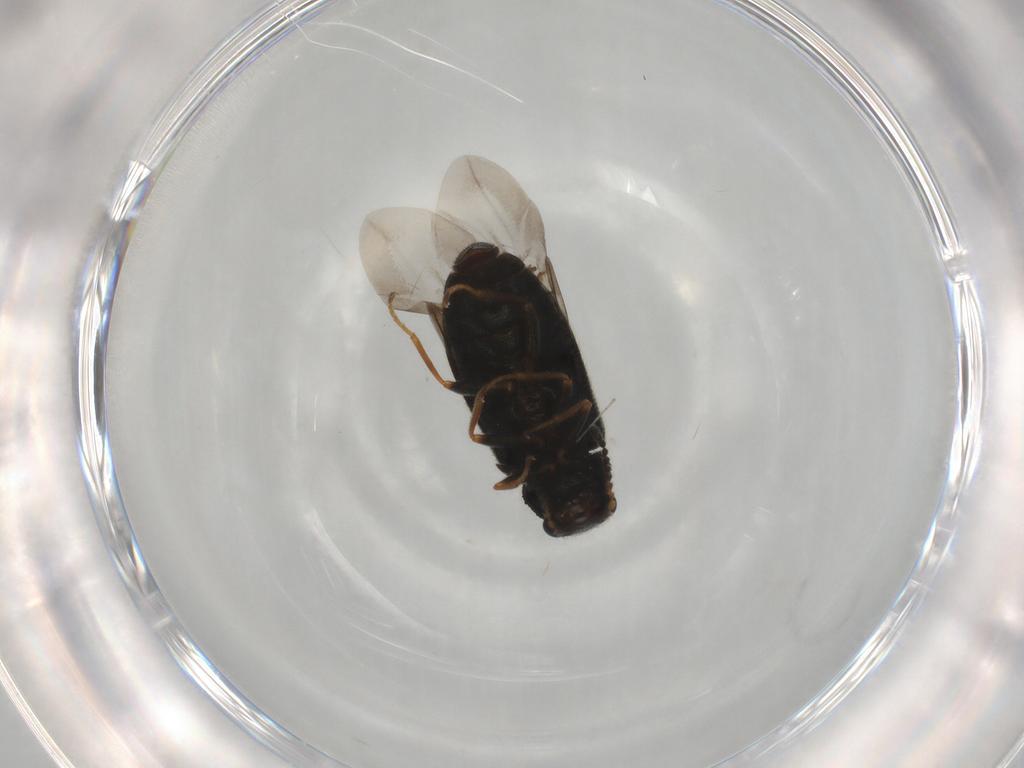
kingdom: Animalia
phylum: Arthropoda
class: Insecta
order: Coleoptera
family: Melyridae
